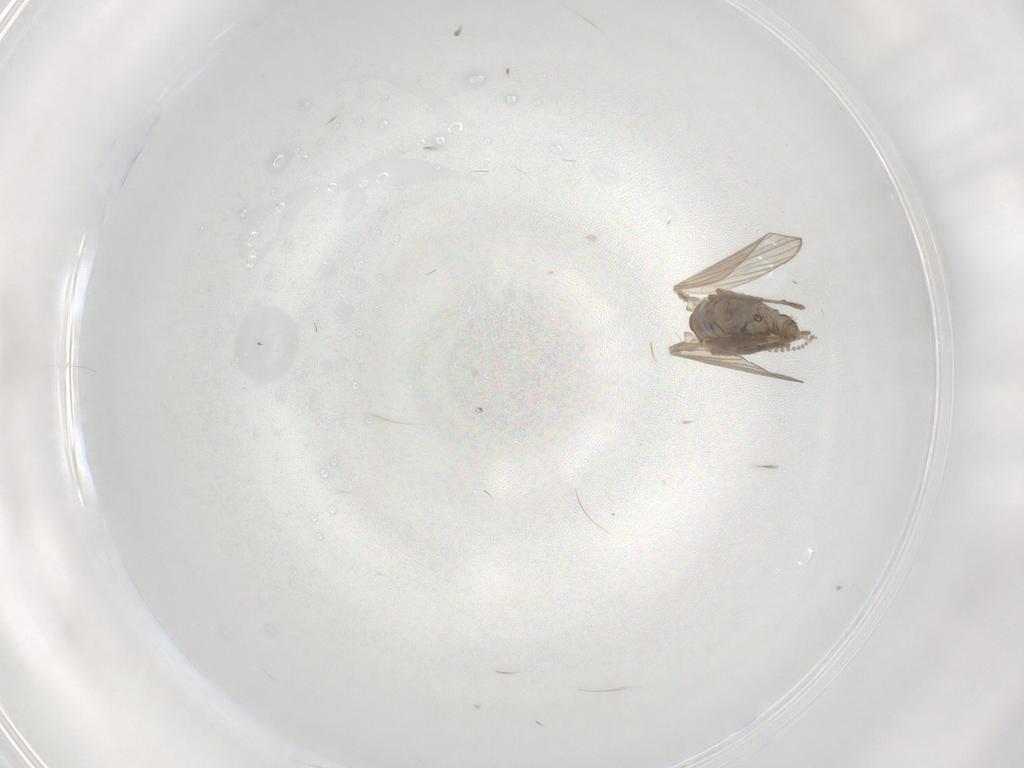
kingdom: Animalia
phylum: Arthropoda
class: Insecta
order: Diptera
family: Psychodidae
